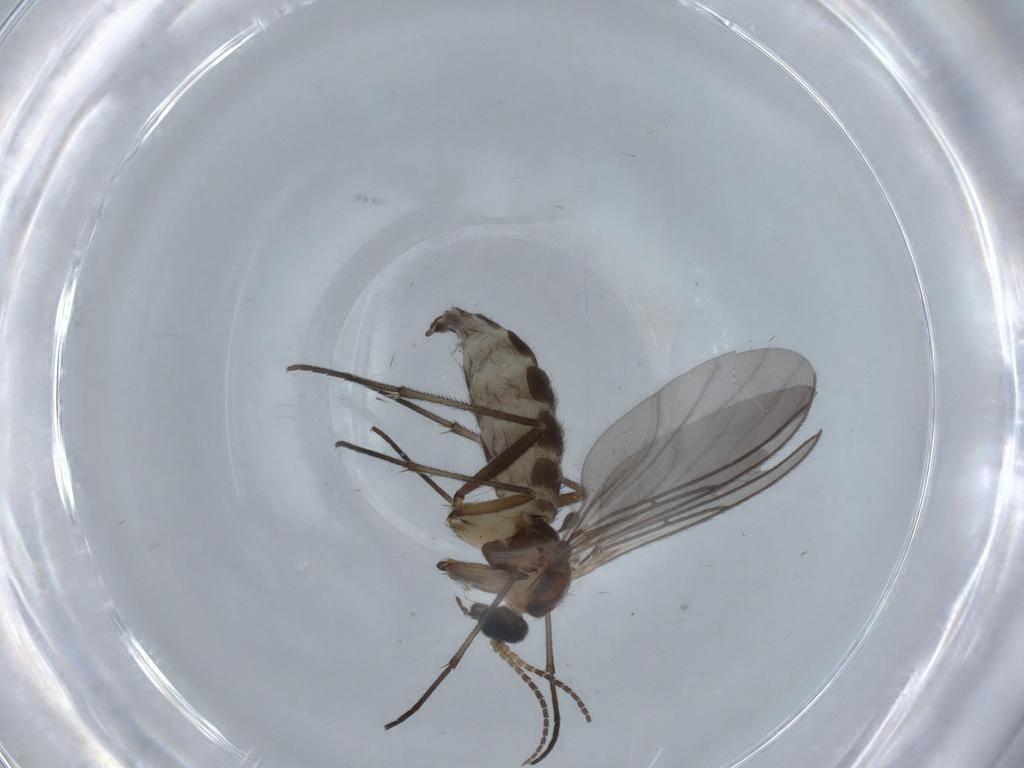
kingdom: Animalia
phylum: Arthropoda
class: Insecta
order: Diptera
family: Sciaridae
